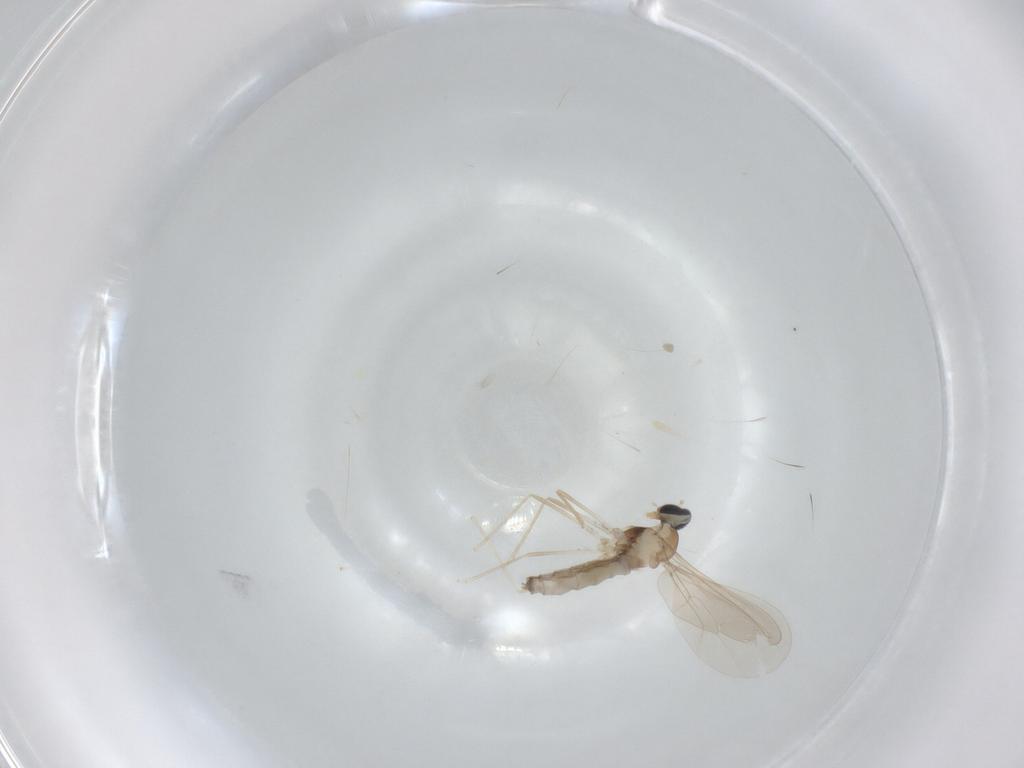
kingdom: Animalia
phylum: Arthropoda
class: Insecta
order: Diptera
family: Cecidomyiidae
